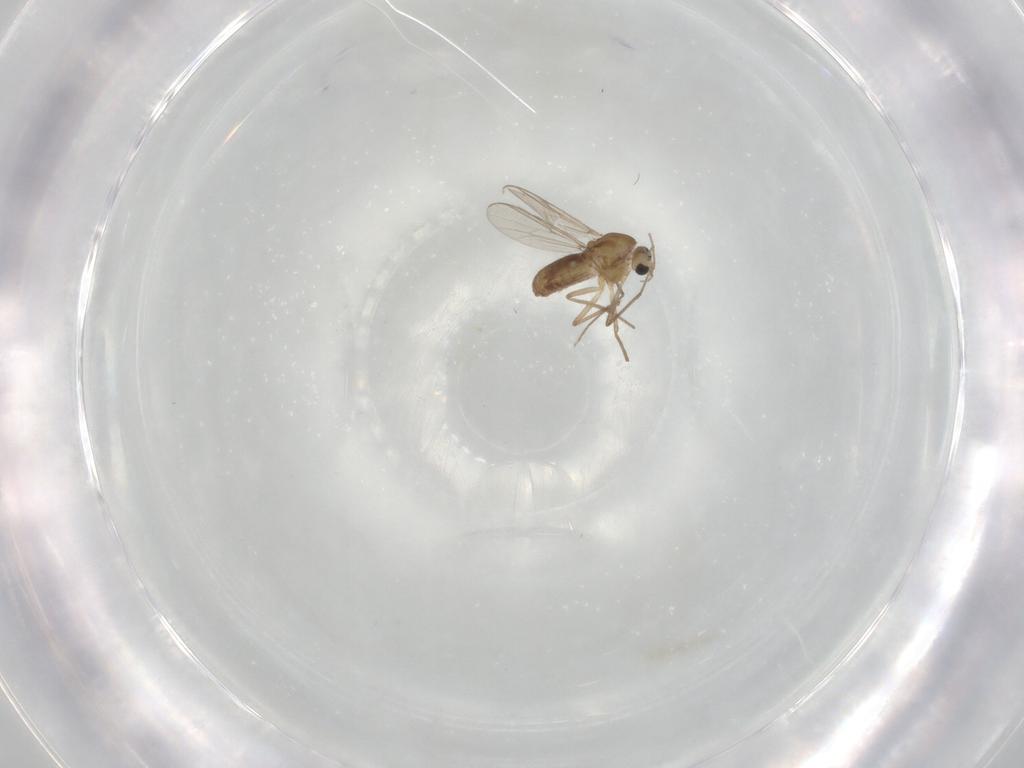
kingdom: Animalia
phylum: Arthropoda
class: Insecta
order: Diptera
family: Chironomidae
